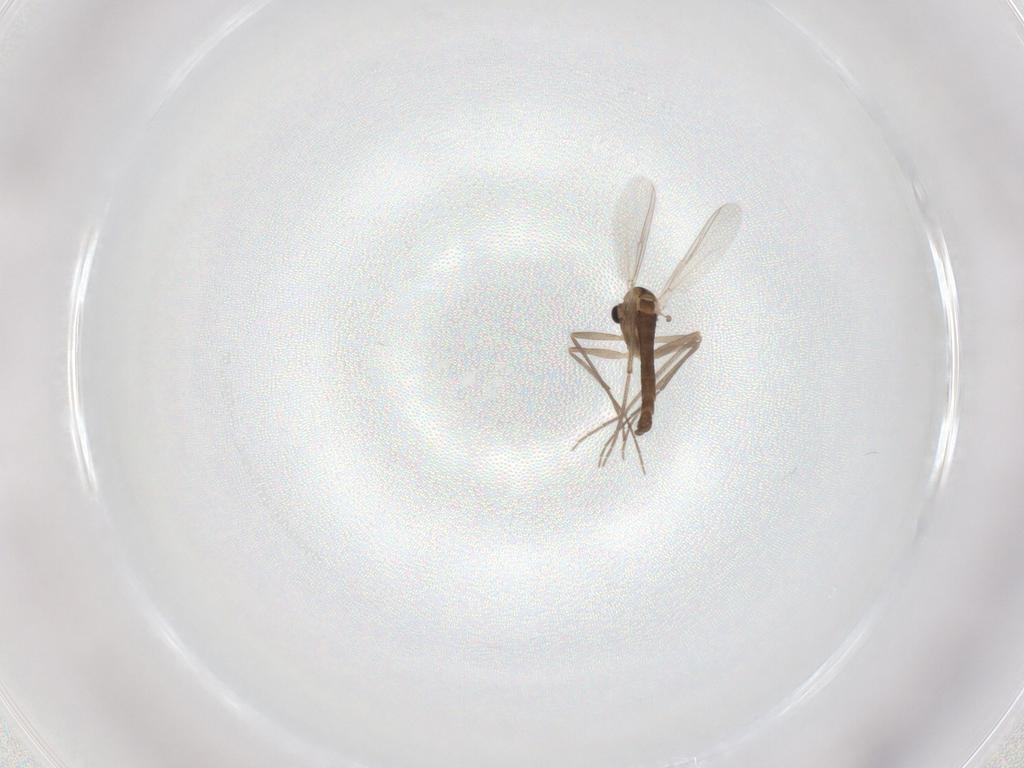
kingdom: Animalia
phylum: Arthropoda
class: Insecta
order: Diptera
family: Chironomidae
